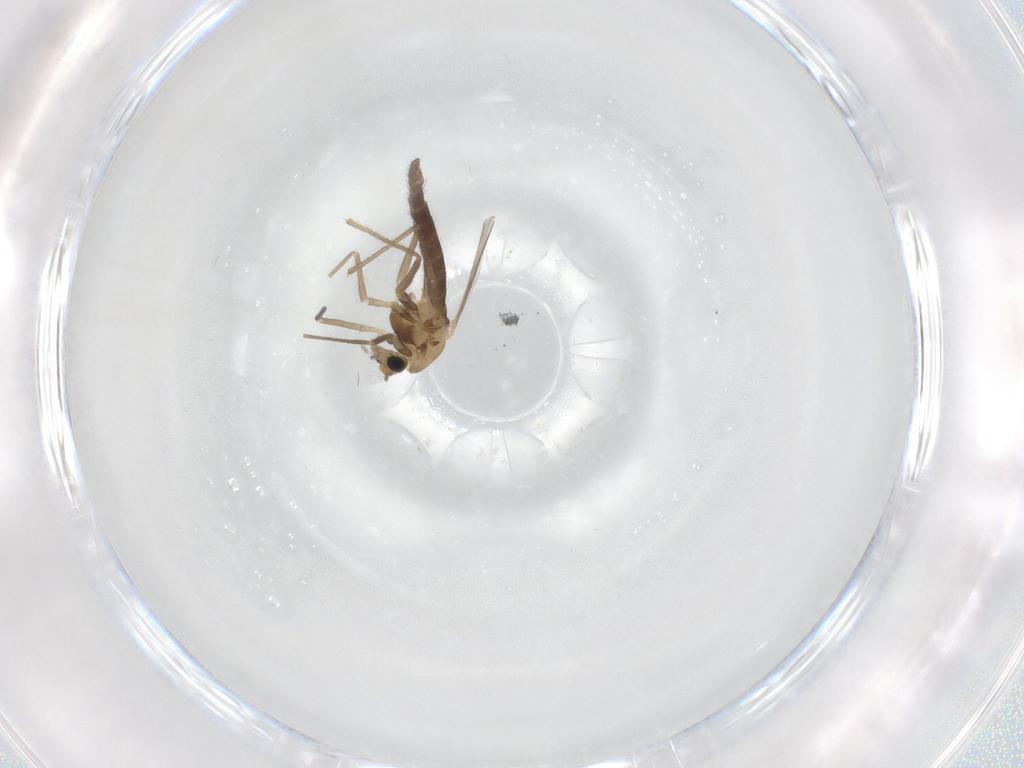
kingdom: Animalia
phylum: Arthropoda
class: Insecta
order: Diptera
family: Chironomidae
